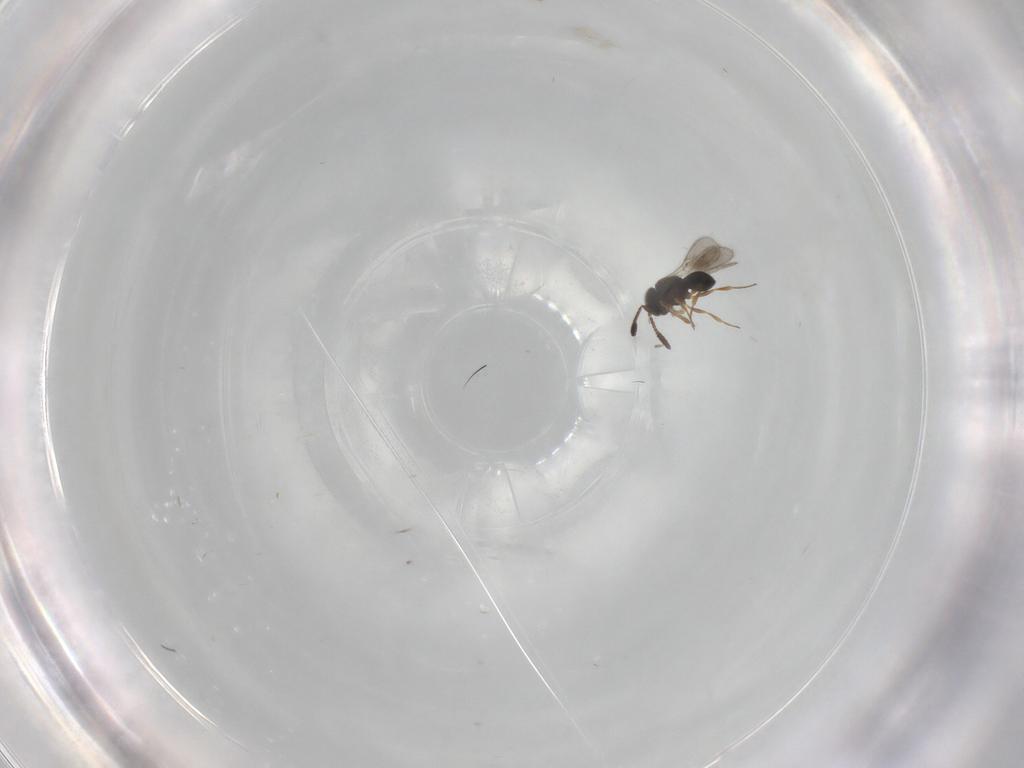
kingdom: Animalia
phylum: Arthropoda
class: Insecta
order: Hymenoptera
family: Scelionidae
